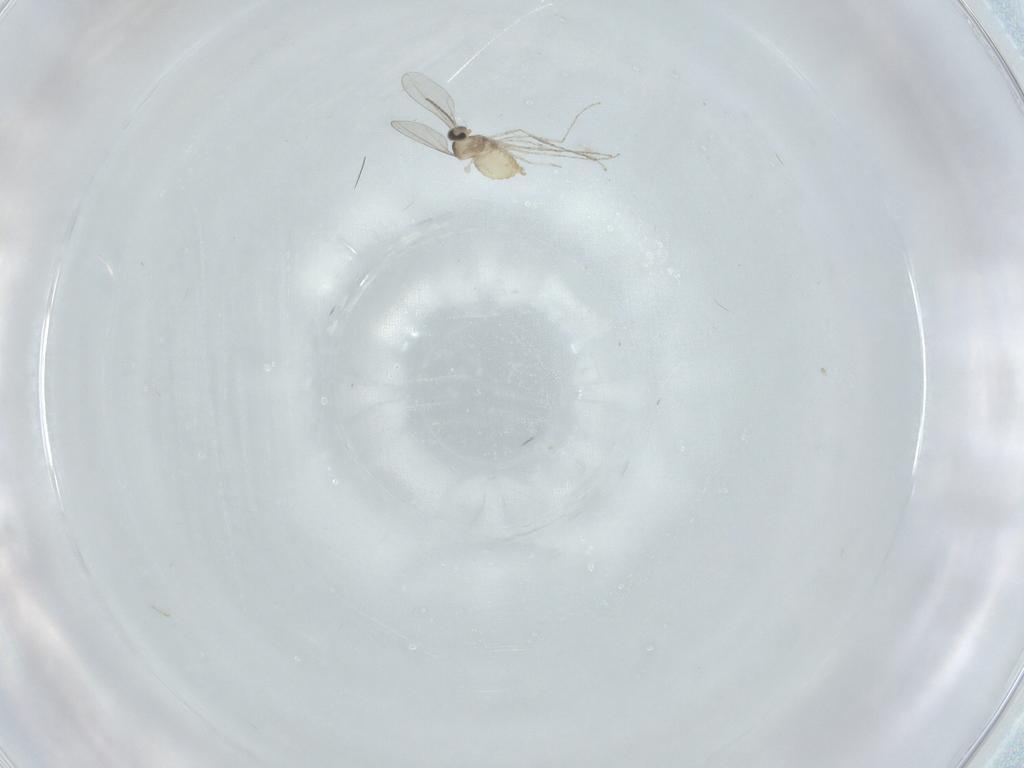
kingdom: Animalia
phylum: Arthropoda
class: Insecta
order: Diptera
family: Cecidomyiidae
